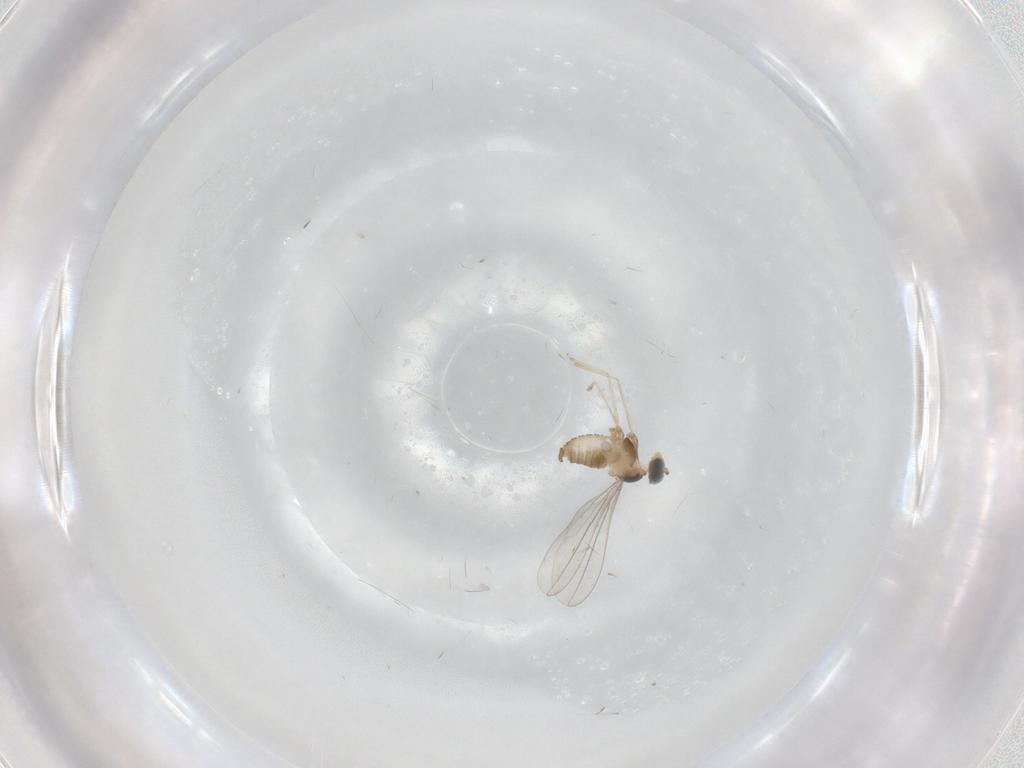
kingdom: Animalia
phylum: Arthropoda
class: Insecta
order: Diptera
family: Cecidomyiidae
